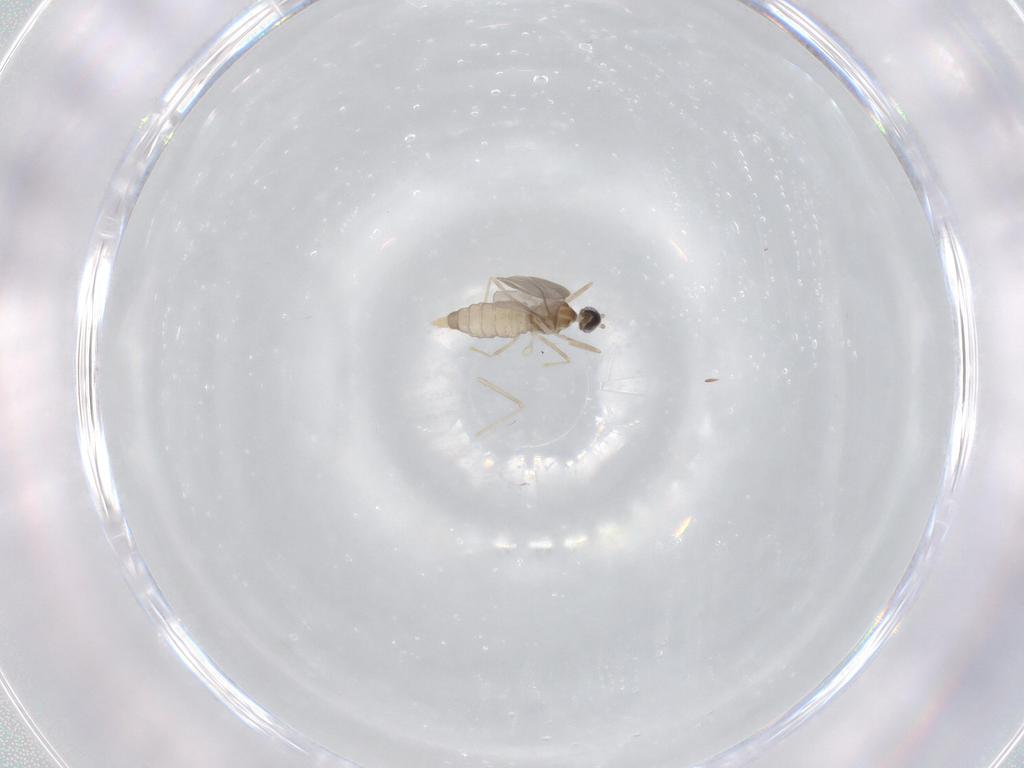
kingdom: Animalia
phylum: Arthropoda
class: Insecta
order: Diptera
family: Cecidomyiidae
